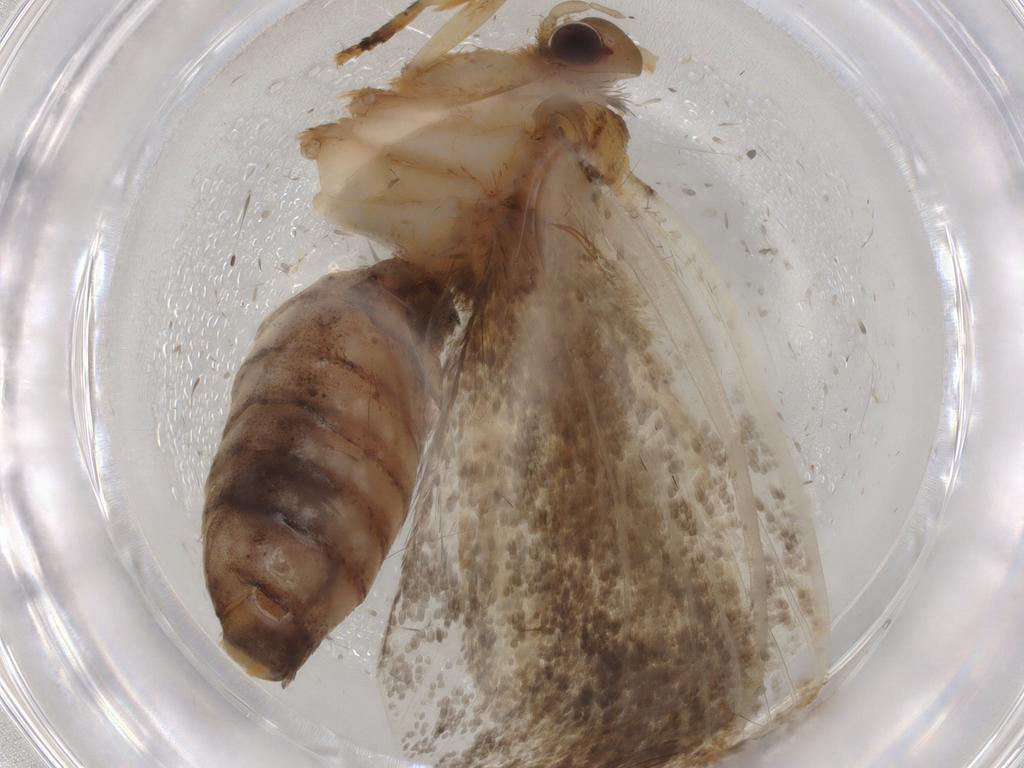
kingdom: Animalia
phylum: Arthropoda
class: Insecta
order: Lepidoptera
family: Tineidae
